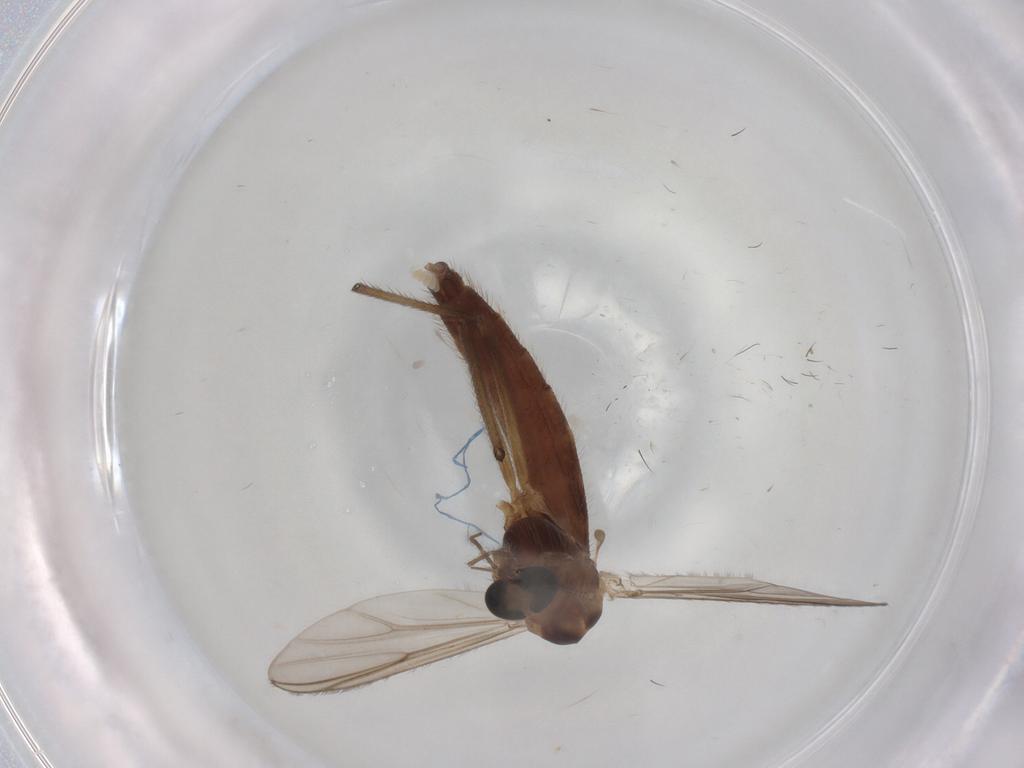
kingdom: Animalia
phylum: Arthropoda
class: Insecta
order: Diptera
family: Chironomidae
